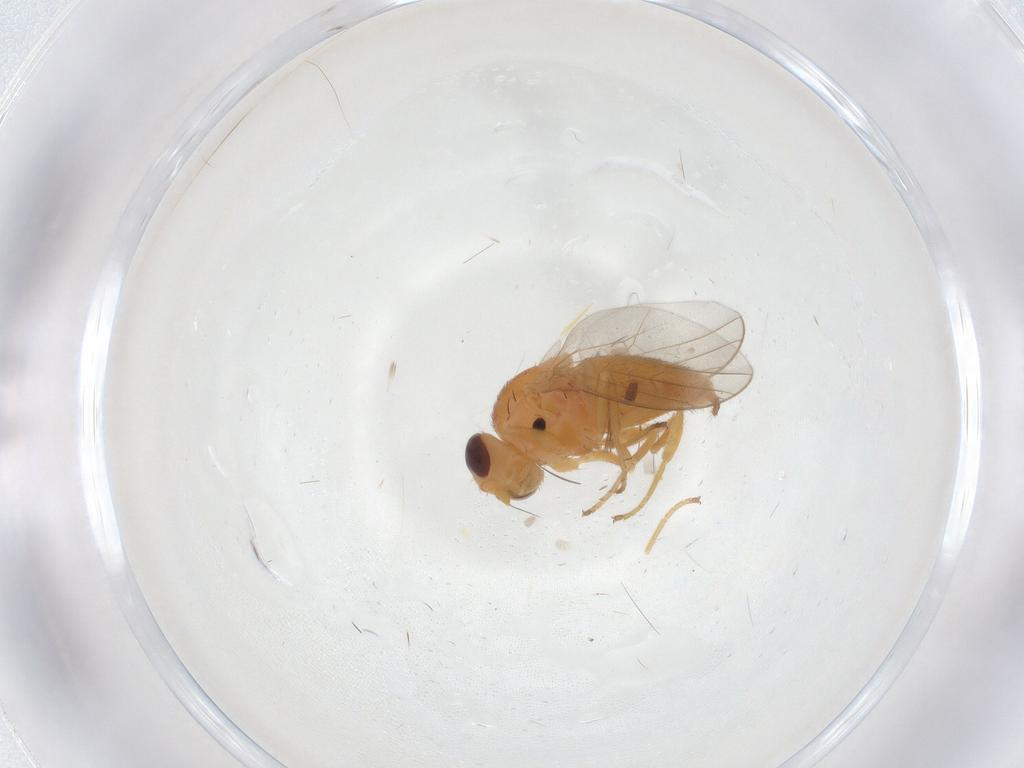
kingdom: Animalia
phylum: Arthropoda
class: Insecta
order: Diptera
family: Chloropidae
